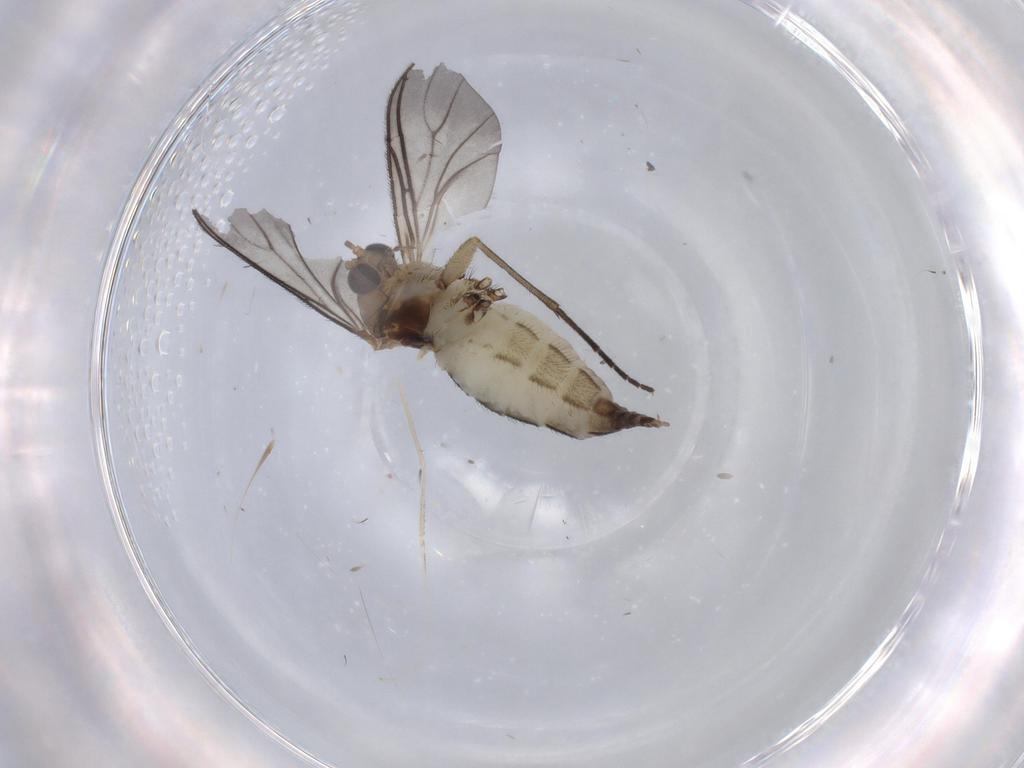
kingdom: Animalia
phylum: Arthropoda
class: Insecta
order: Diptera
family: Sciaridae
